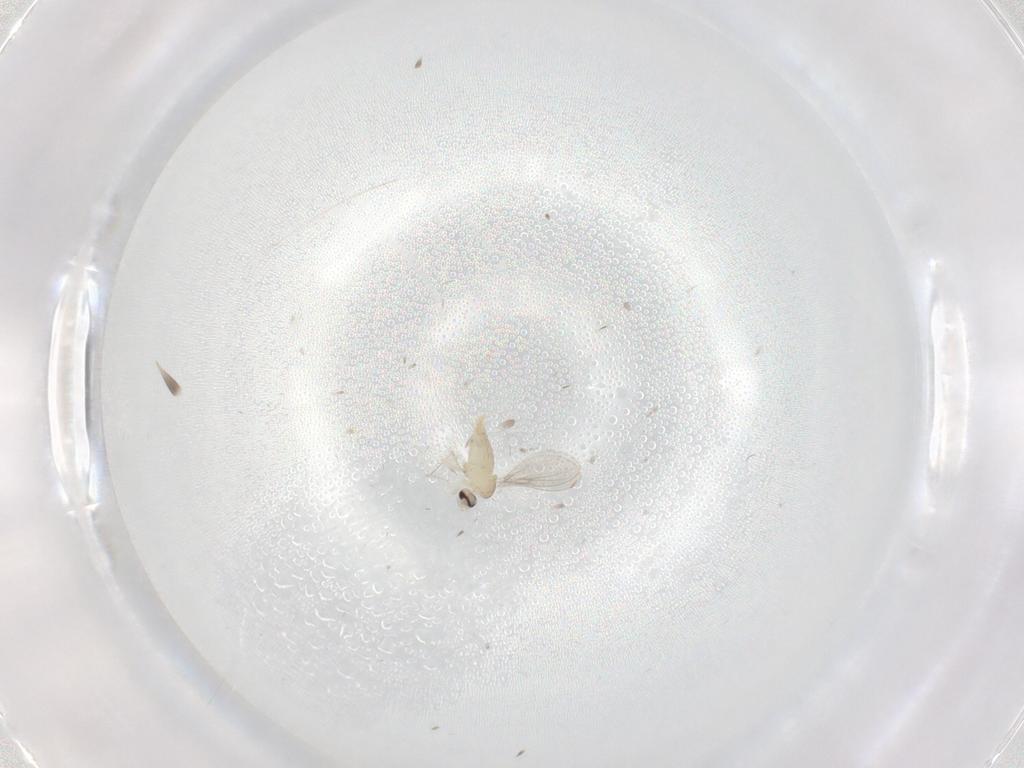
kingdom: Animalia
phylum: Arthropoda
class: Insecta
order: Diptera
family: Cecidomyiidae
